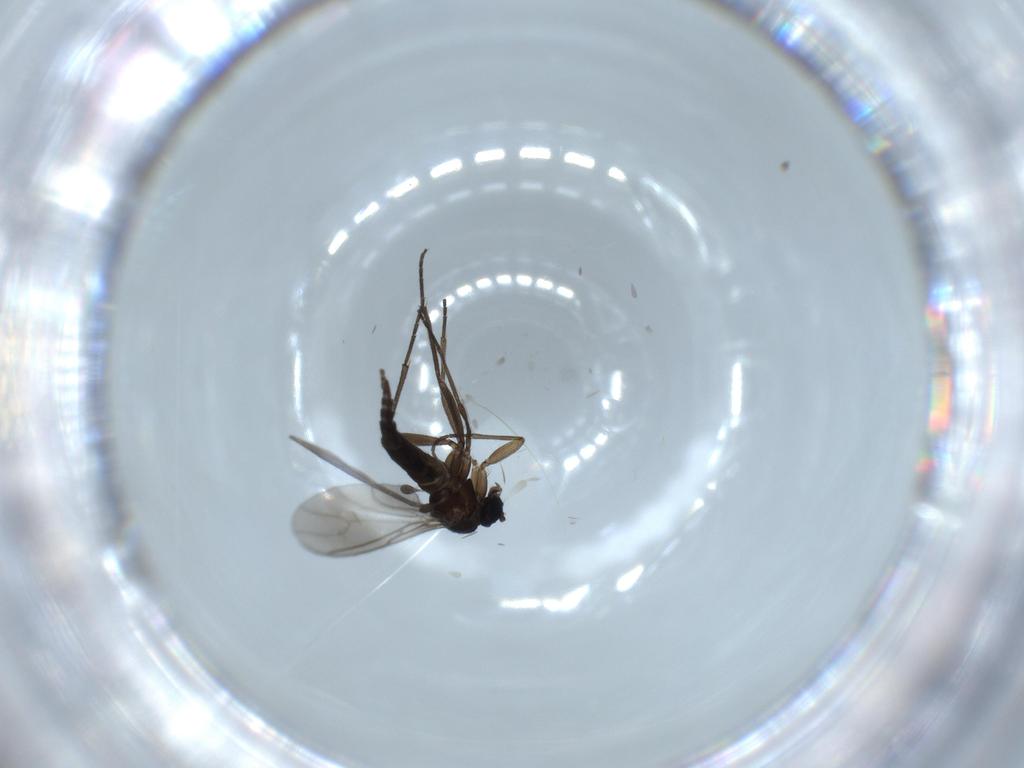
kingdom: Animalia
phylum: Arthropoda
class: Insecta
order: Diptera
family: Sciaridae
